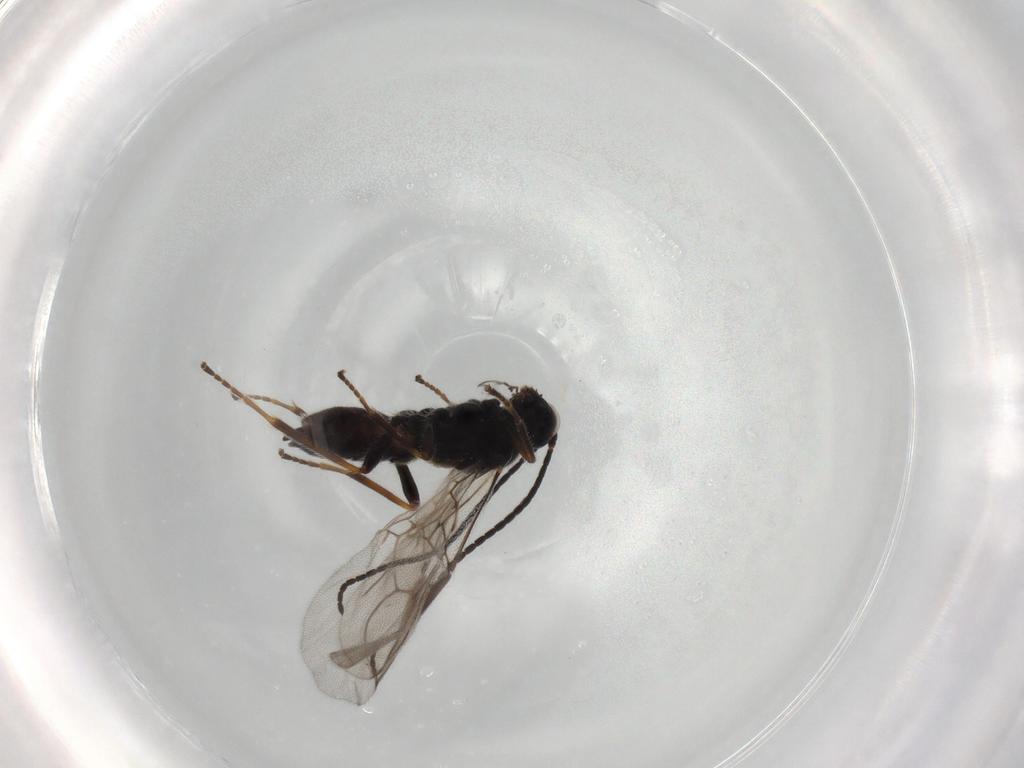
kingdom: Animalia
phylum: Arthropoda
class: Insecta
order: Hymenoptera
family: Braconidae
